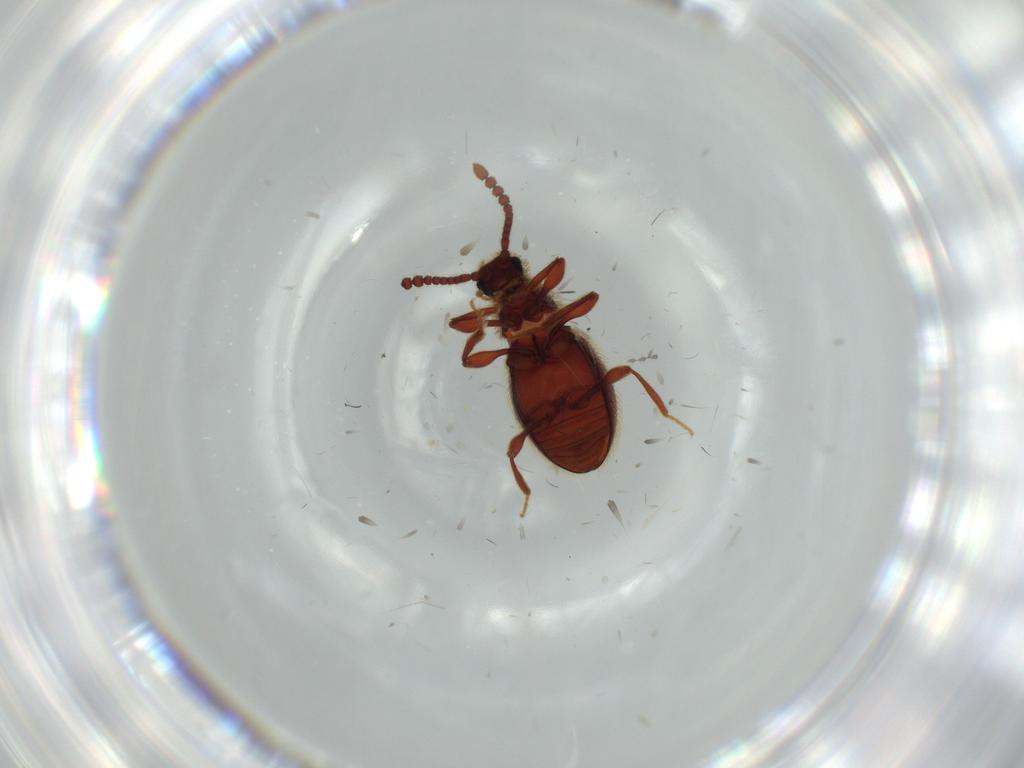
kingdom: Animalia
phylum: Arthropoda
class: Insecta
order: Coleoptera
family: Staphylinidae
